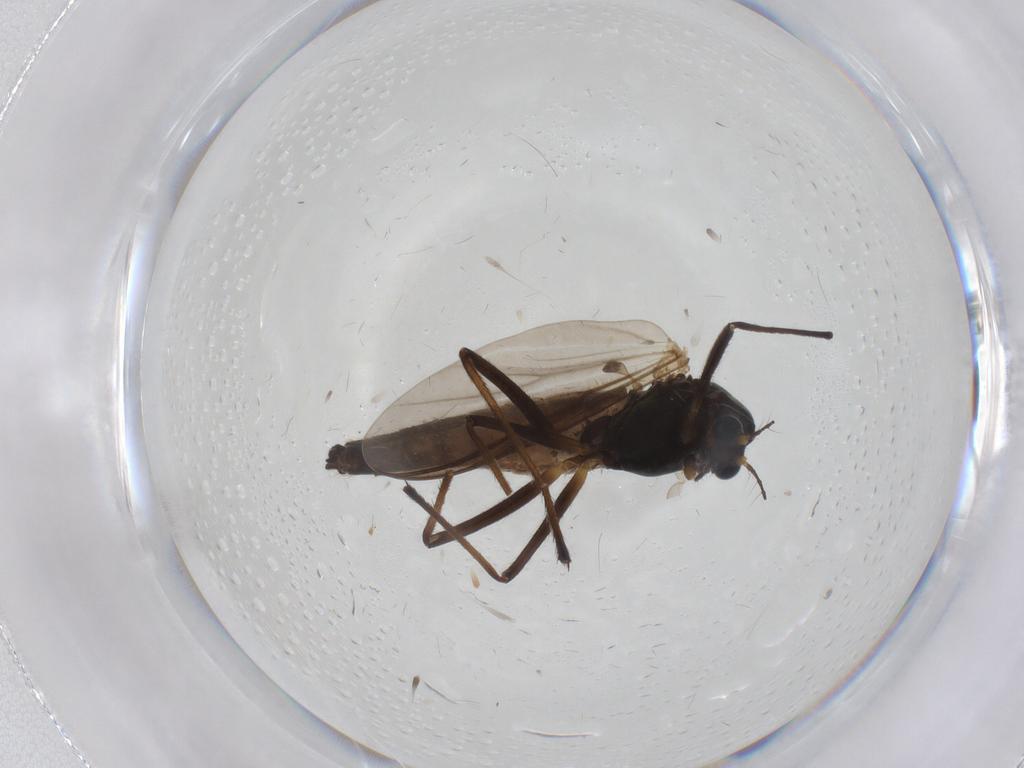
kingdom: Animalia
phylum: Arthropoda
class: Insecta
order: Diptera
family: Chironomidae
